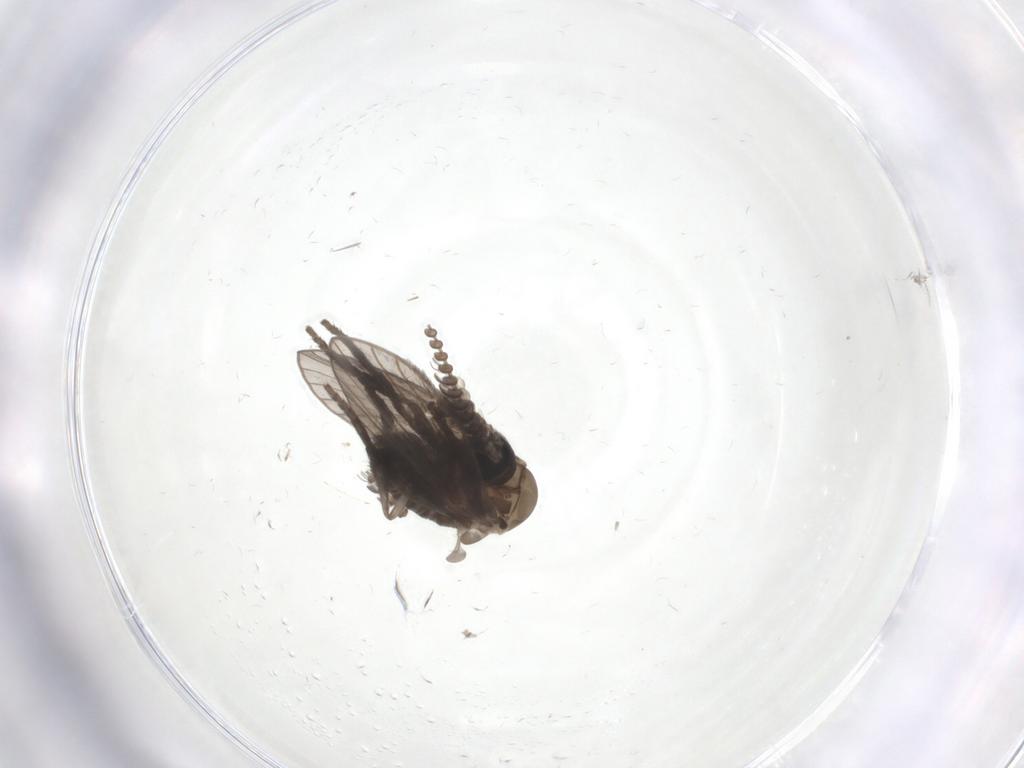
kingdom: Animalia
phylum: Arthropoda
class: Insecta
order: Diptera
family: Psychodidae
